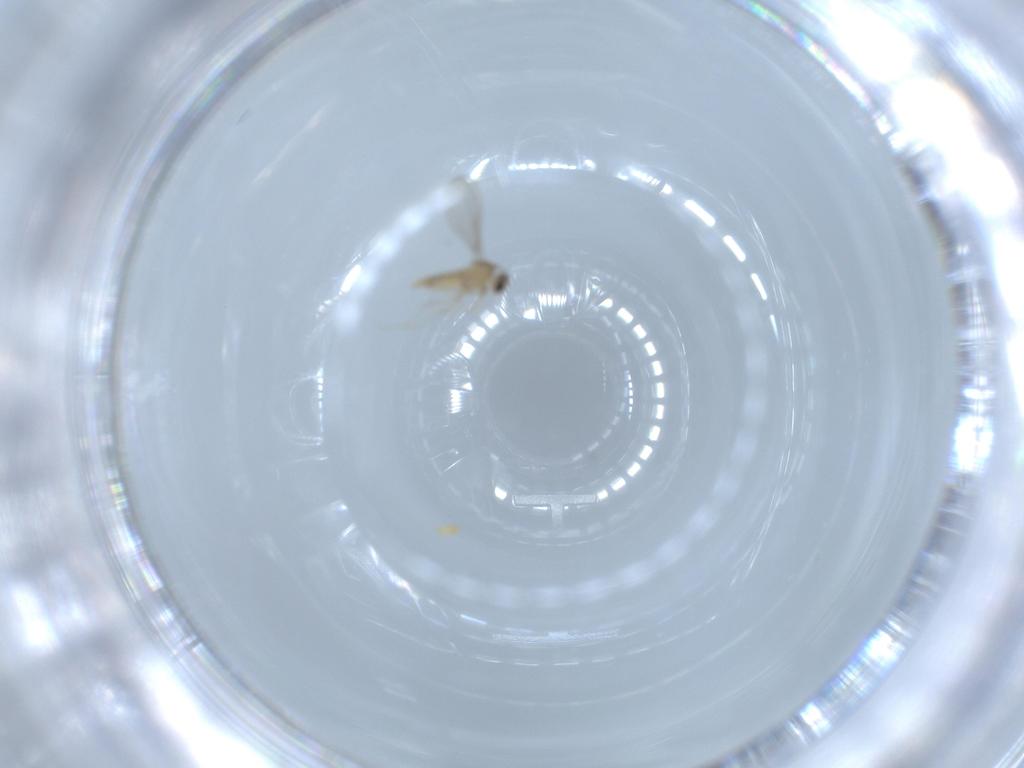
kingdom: Animalia
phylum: Arthropoda
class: Insecta
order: Diptera
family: Cecidomyiidae
